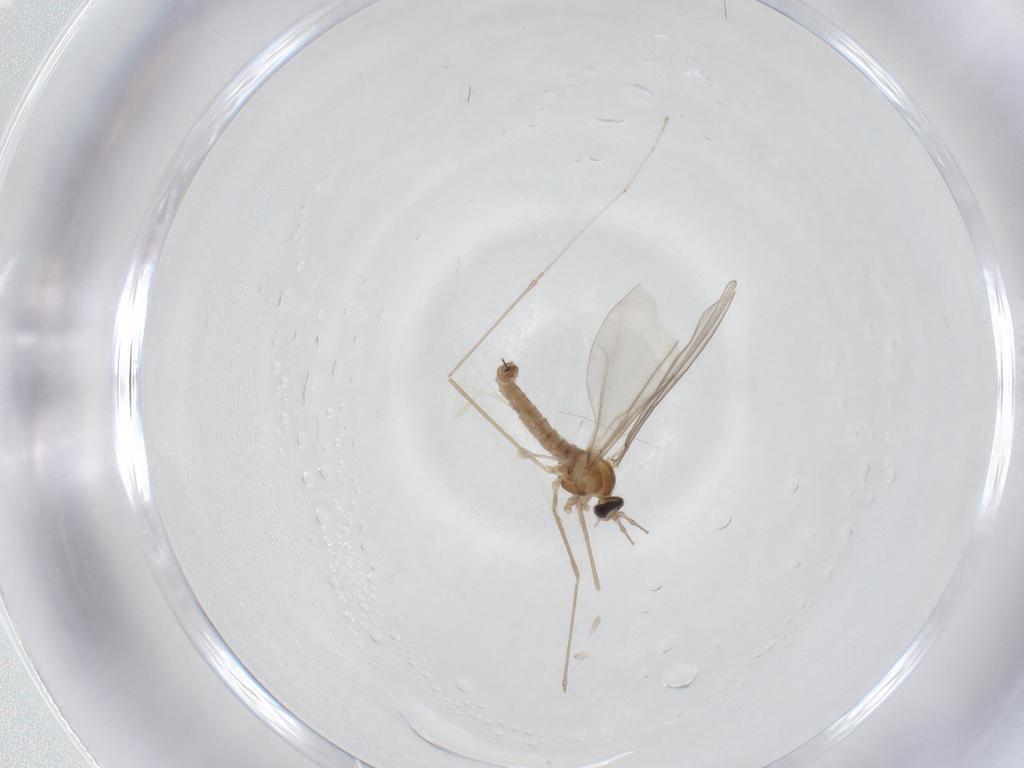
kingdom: Animalia
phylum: Arthropoda
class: Insecta
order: Diptera
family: Cecidomyiidae
